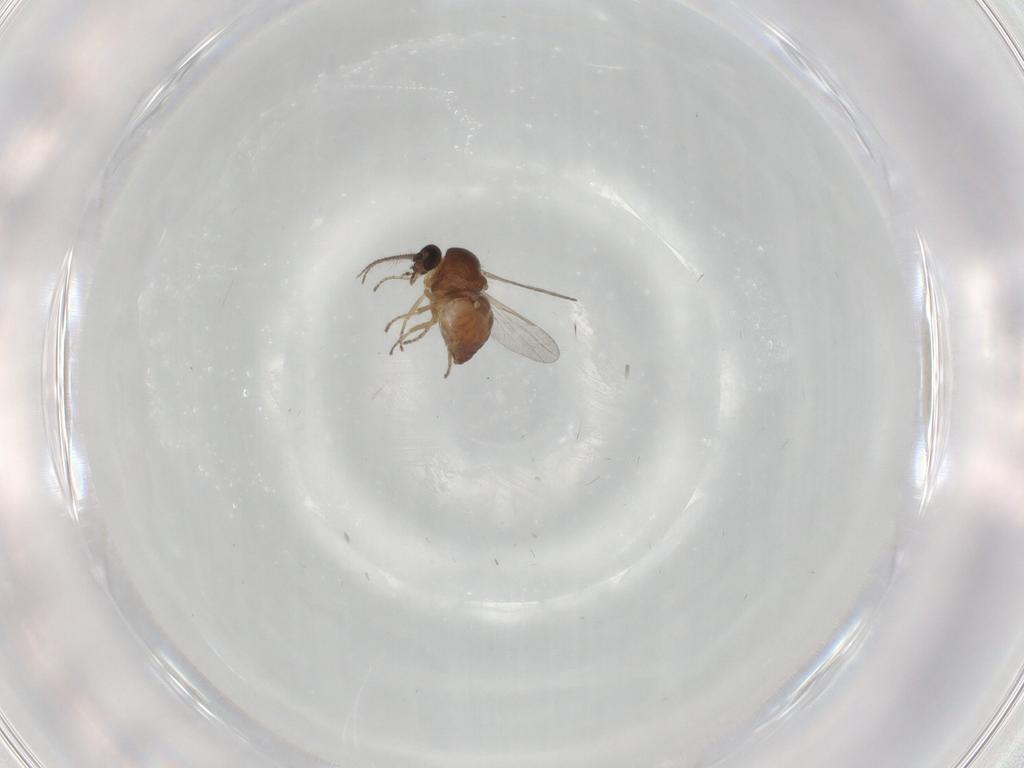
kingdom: Animalia
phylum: Arthropoda
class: Insecta
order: Diptera
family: Ceratopogonidae
